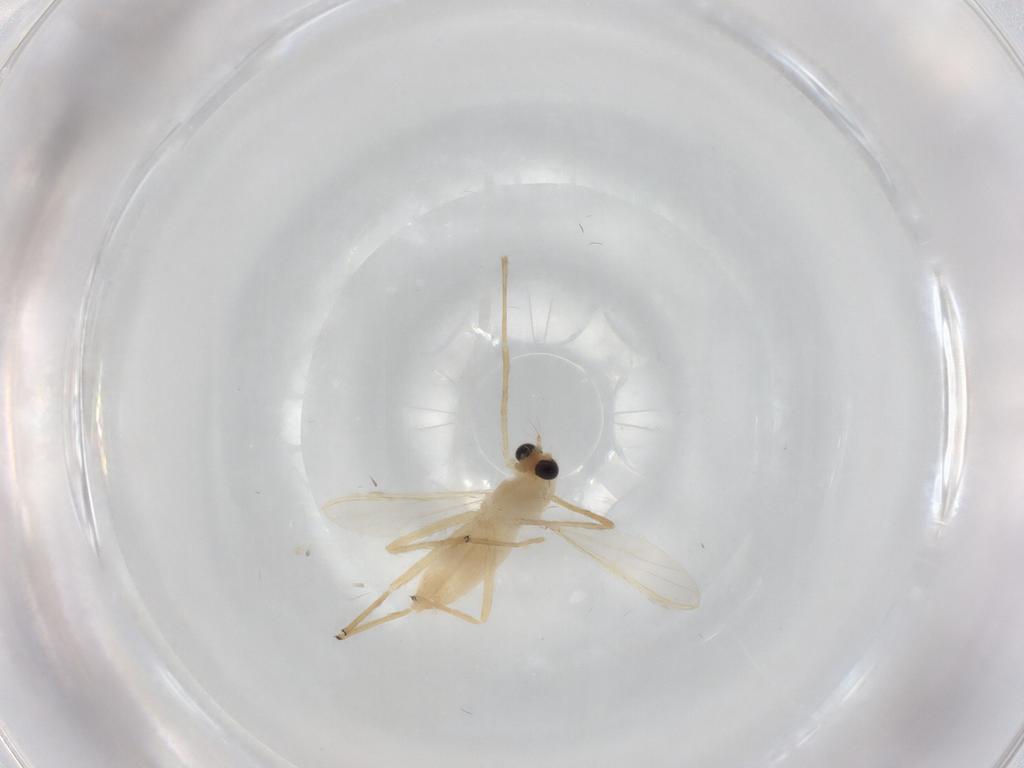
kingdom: Animalia
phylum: Arthropoda
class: Insecta
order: Diptera
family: Chironomidae
